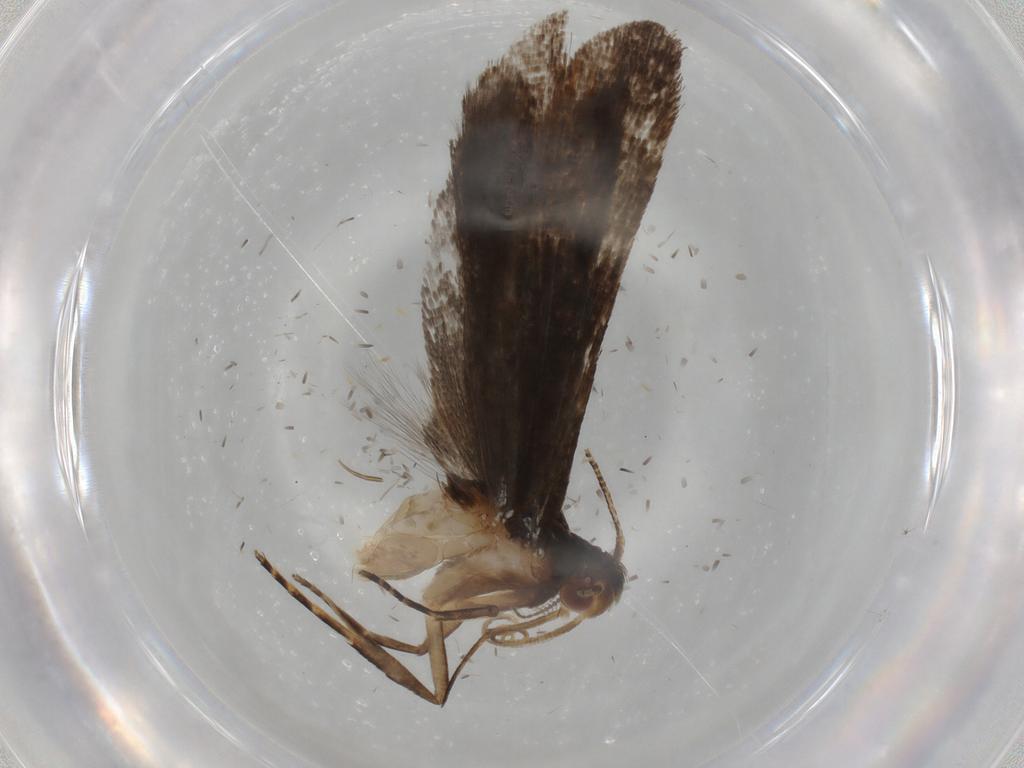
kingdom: Animalia
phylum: Arthropoda
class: Insecta
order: Lepidoptera
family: Gelechiidae
